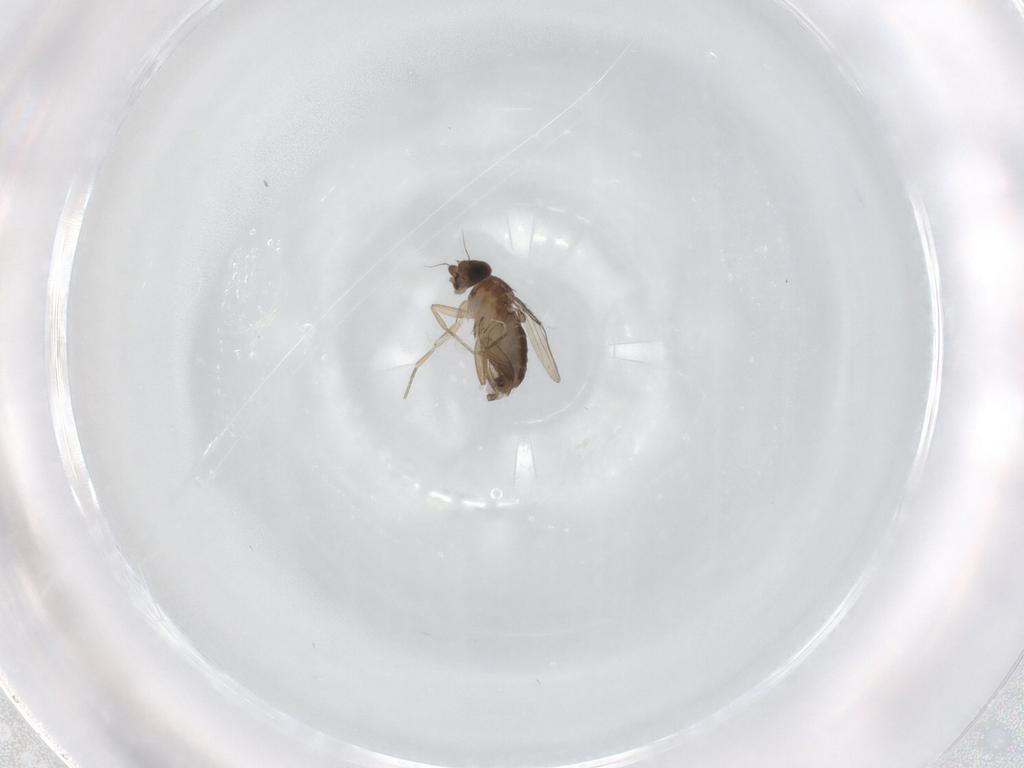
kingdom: Animalia
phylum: Arthropoda
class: Insecta
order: Diptera
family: Phoridae
